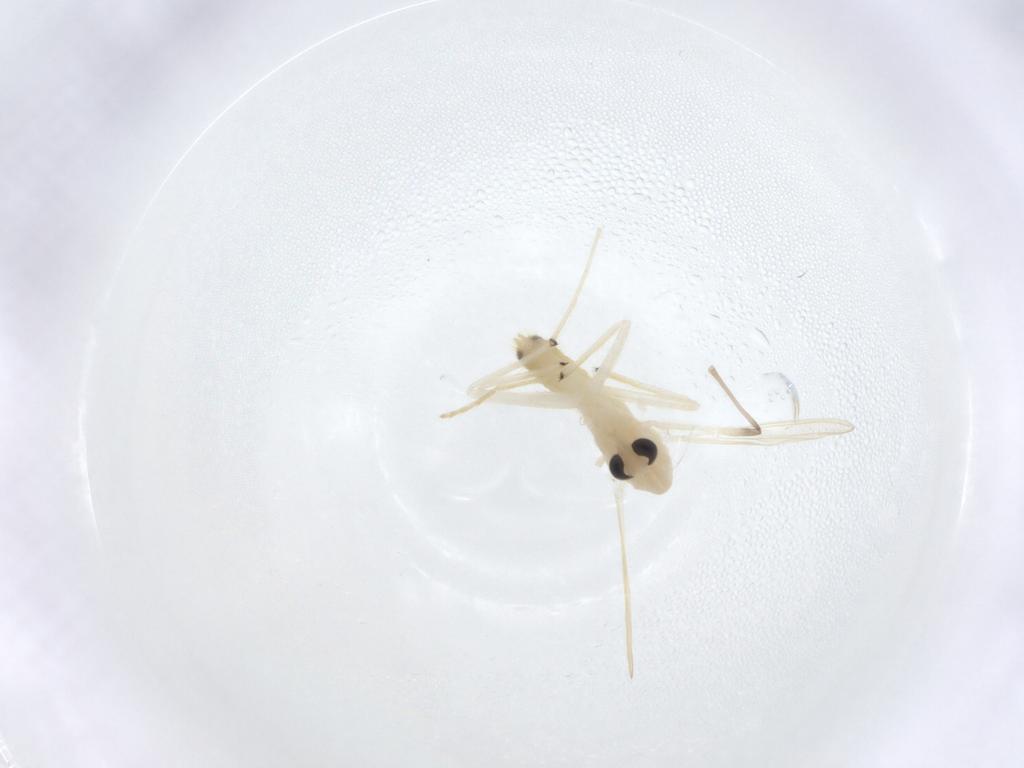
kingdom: Animalia
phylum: Arthropoda
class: Insecta
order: Diptera
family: Chironomidae
